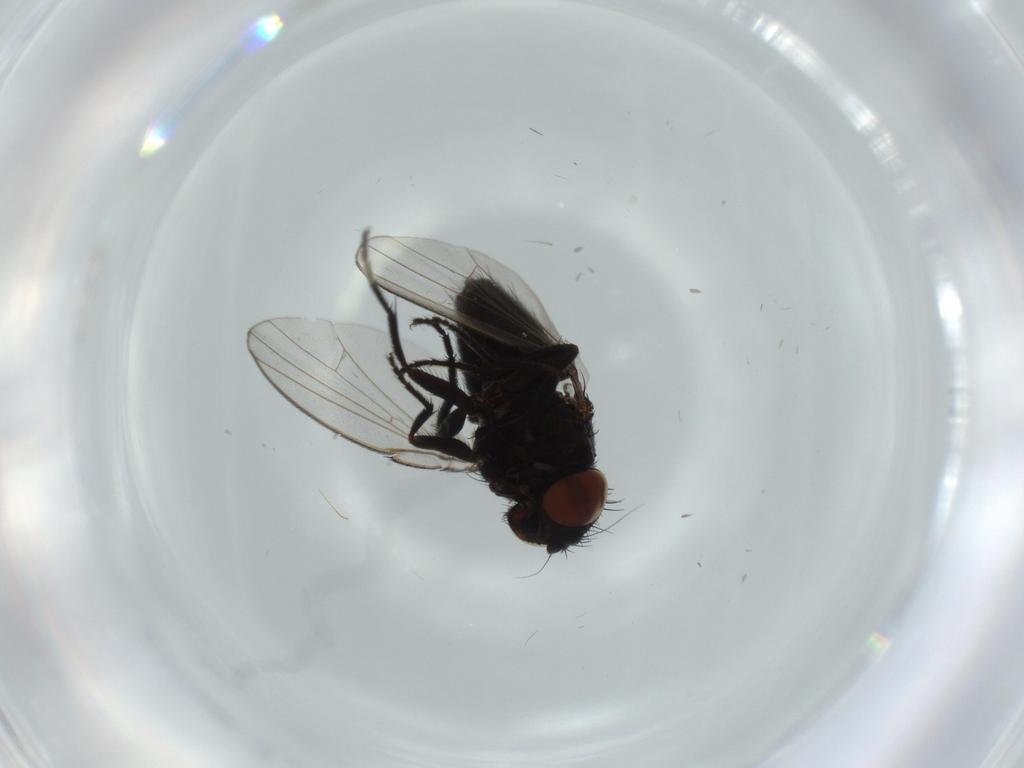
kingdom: Animalia
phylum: Arthropoda
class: Insecta
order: Diptera
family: Milichiidae
